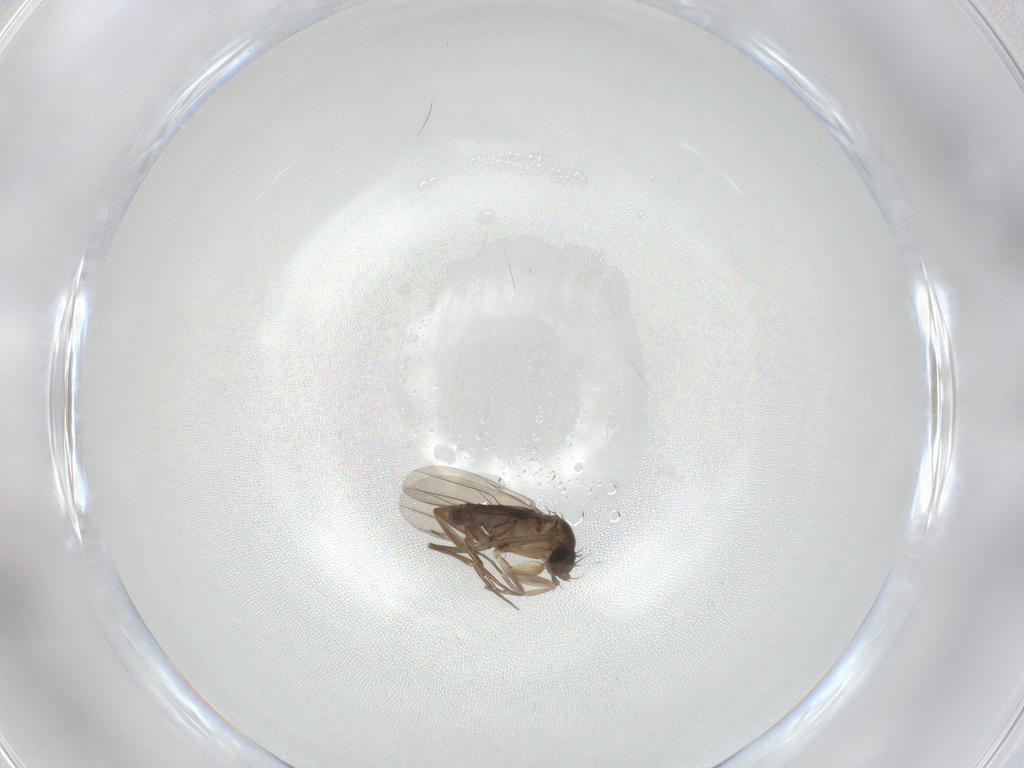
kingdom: Animalia
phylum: Arthropoda
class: Insecta
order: Diptera
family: Phoridae
